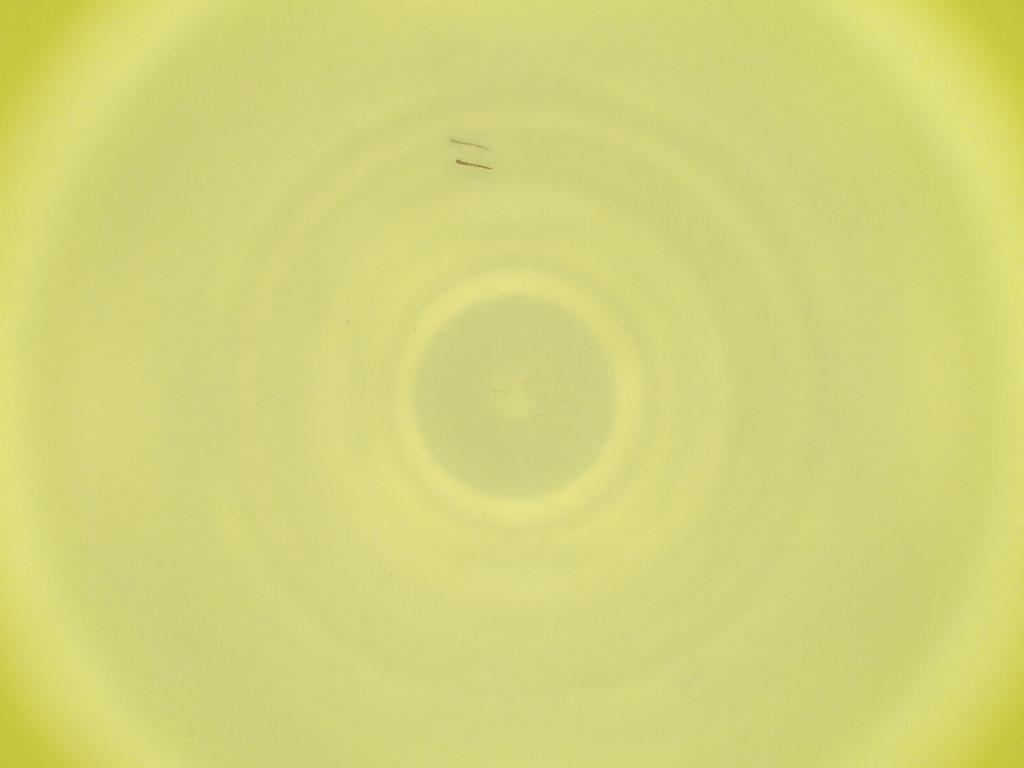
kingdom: Animalia
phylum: Arthropoda
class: Insecta
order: Diptera
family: Cecidomyiidae
